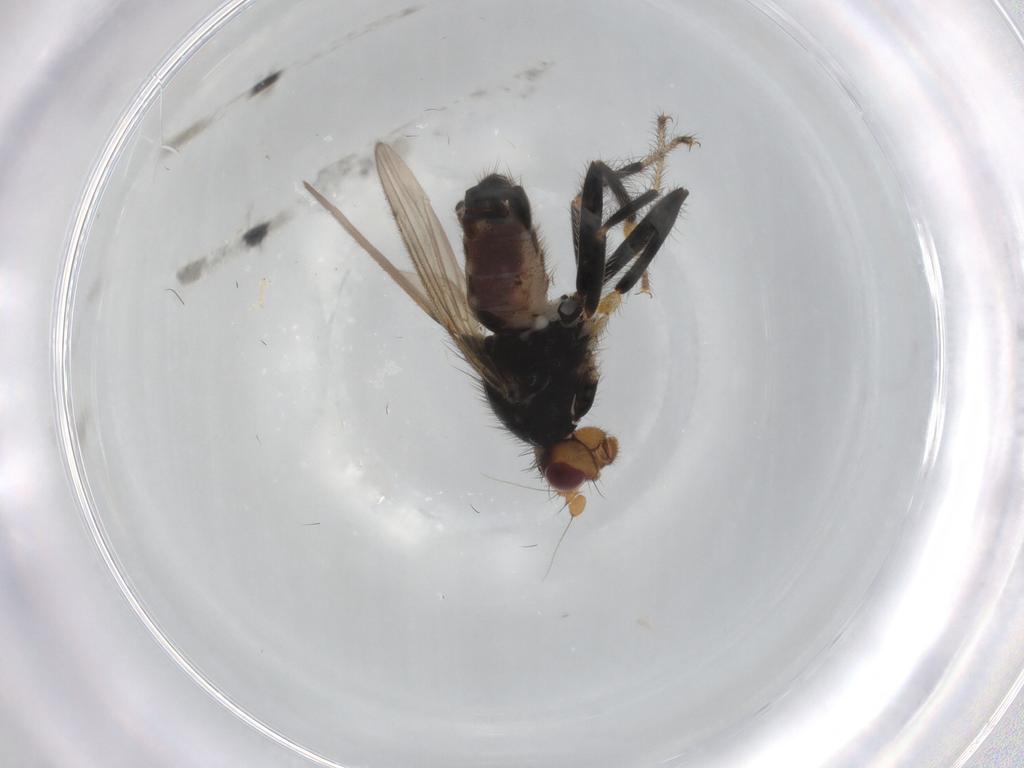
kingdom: Animalia
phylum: Arthropoda
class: Insecta
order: Diptera
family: Sphaeroceridae
